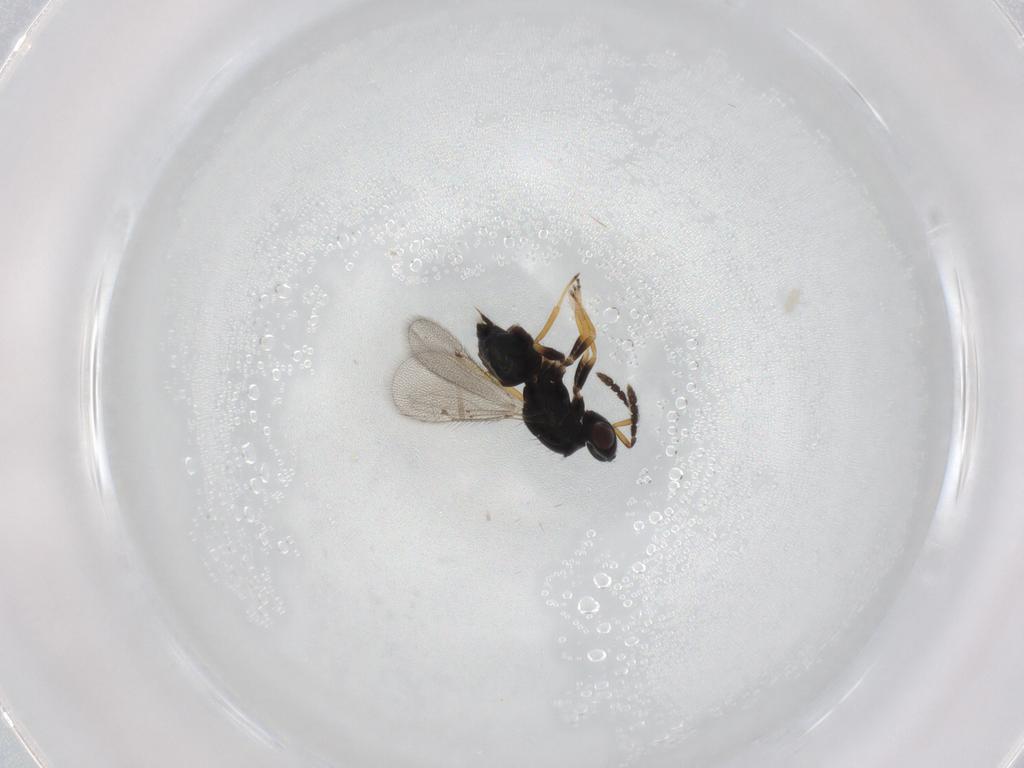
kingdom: Animalia
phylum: Arthropoda
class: Insecta
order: Hymenoptera
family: Eulophidae
